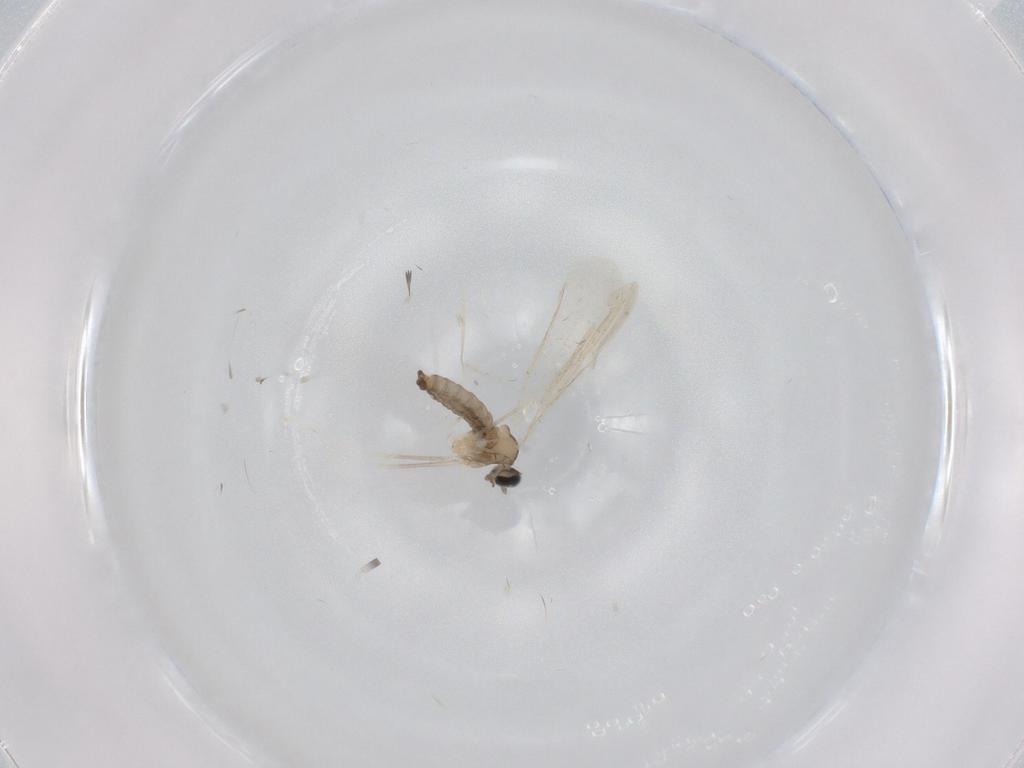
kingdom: Animalia
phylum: Arthropoda
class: Insecta
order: Diptera
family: Cecidomyiidae
